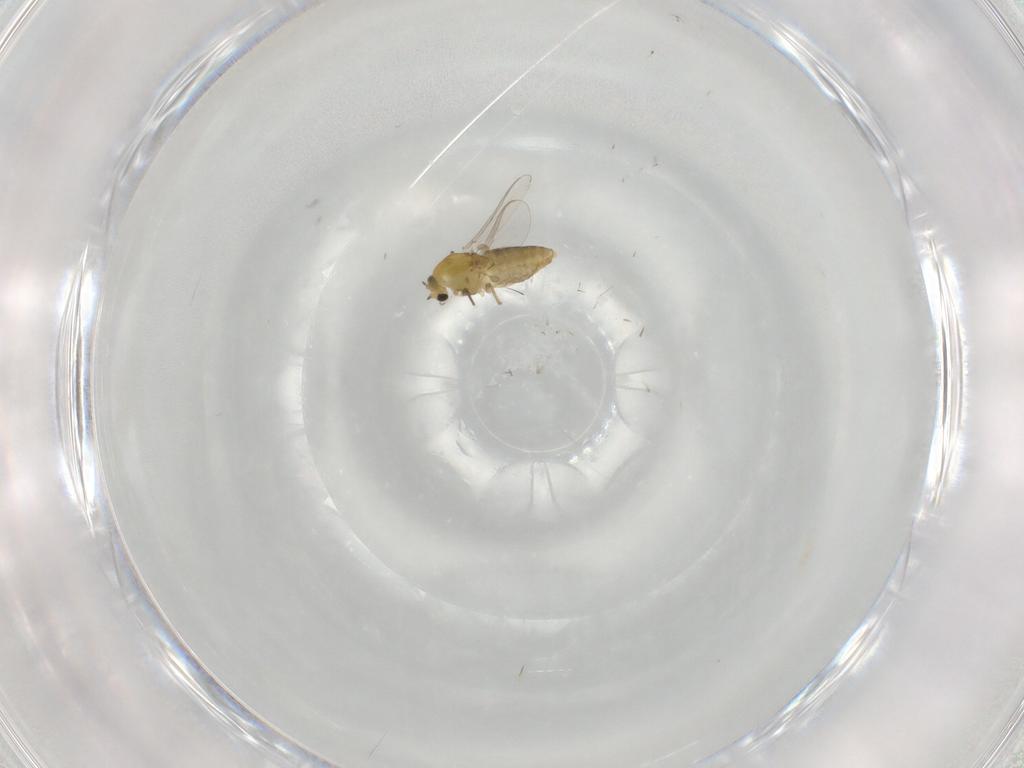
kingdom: Animalia
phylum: Arthropoda
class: Insecta
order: Diptera
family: Chironomidae
